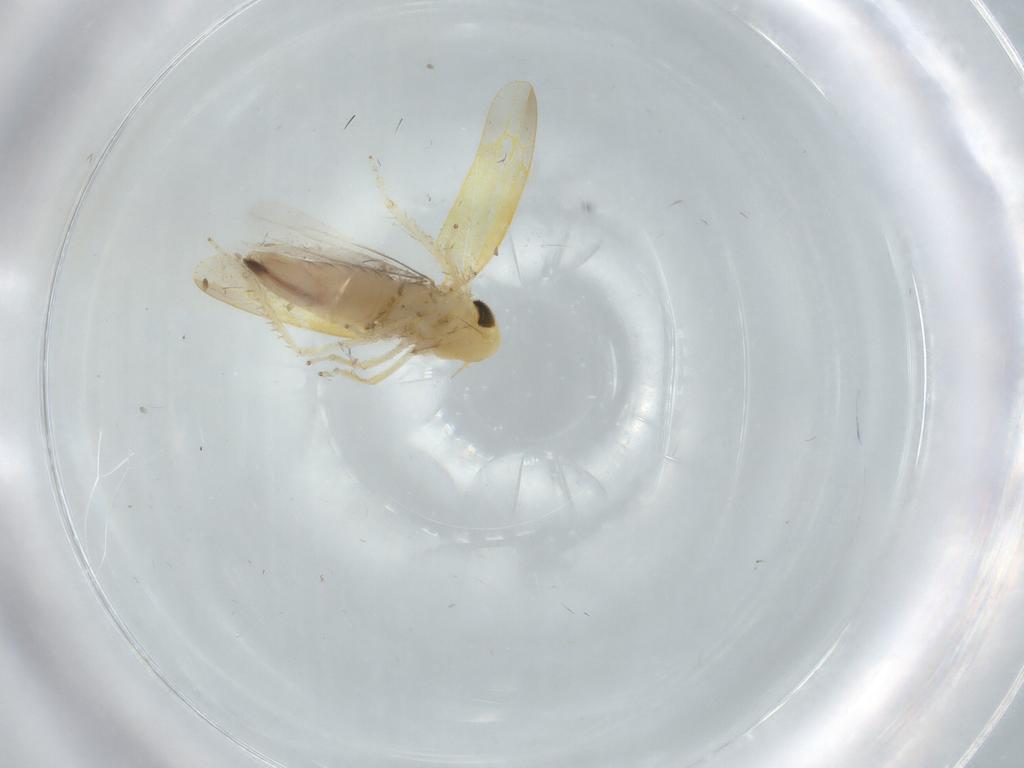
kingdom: Animalia
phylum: Arthropoda
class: Insecta
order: Hemiptera
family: Cicadellidae
